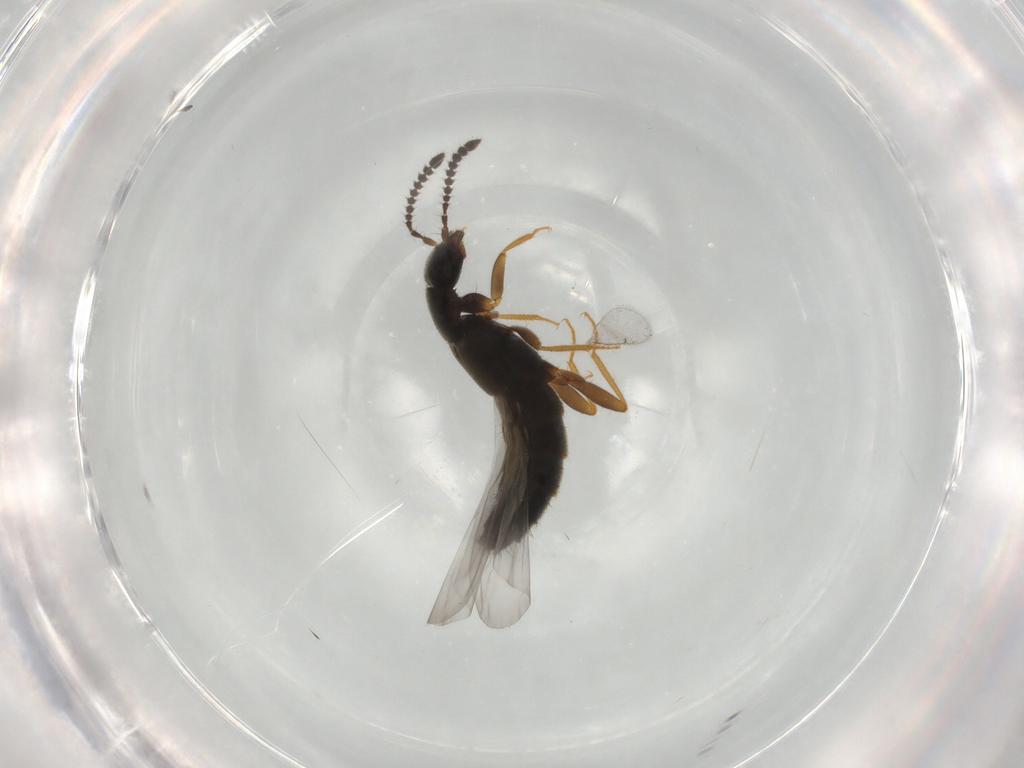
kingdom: Animalia
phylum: Arthropoda
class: Insecta
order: Coleoptera
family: Staphylinidae
